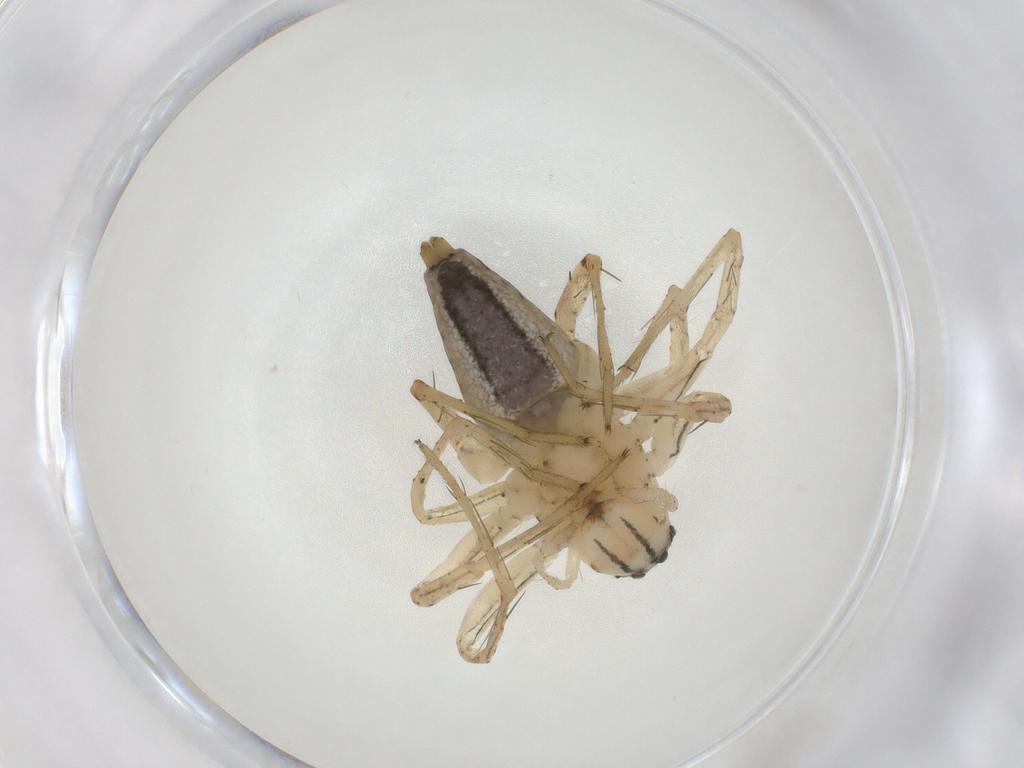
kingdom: Animalia
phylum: Arthropoda
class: Arachnida
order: Araneae
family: Oxyopidae
